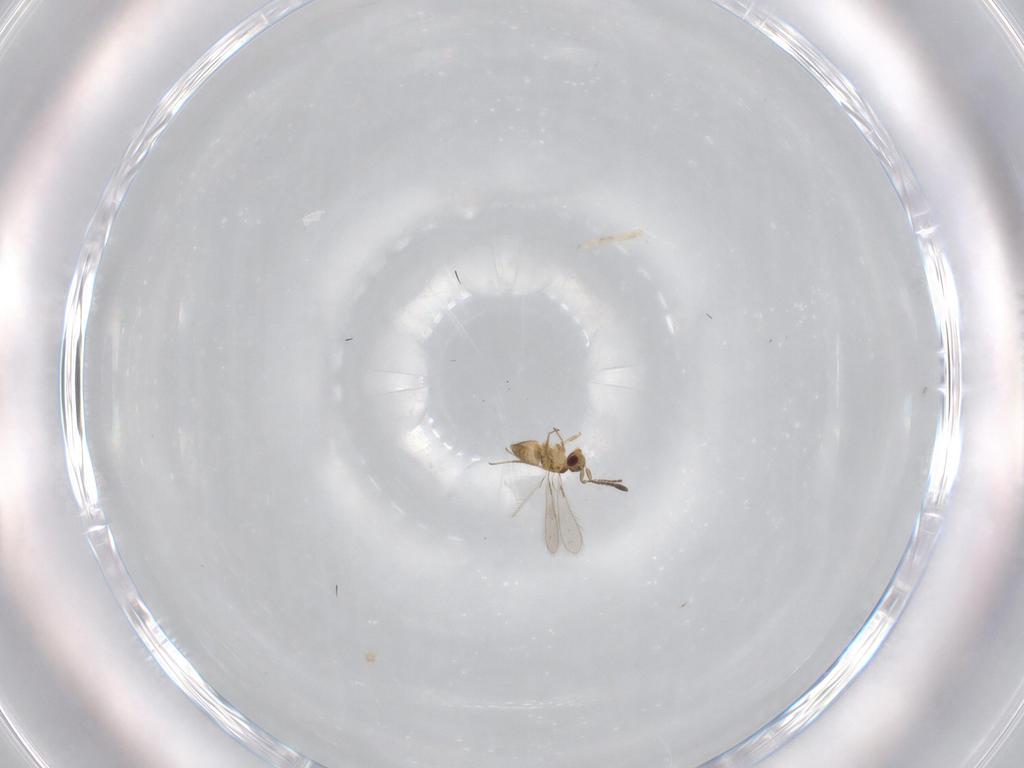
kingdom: Animalia
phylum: Arthropoda
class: Insecta
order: Hymenoptera
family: Mymaridae
